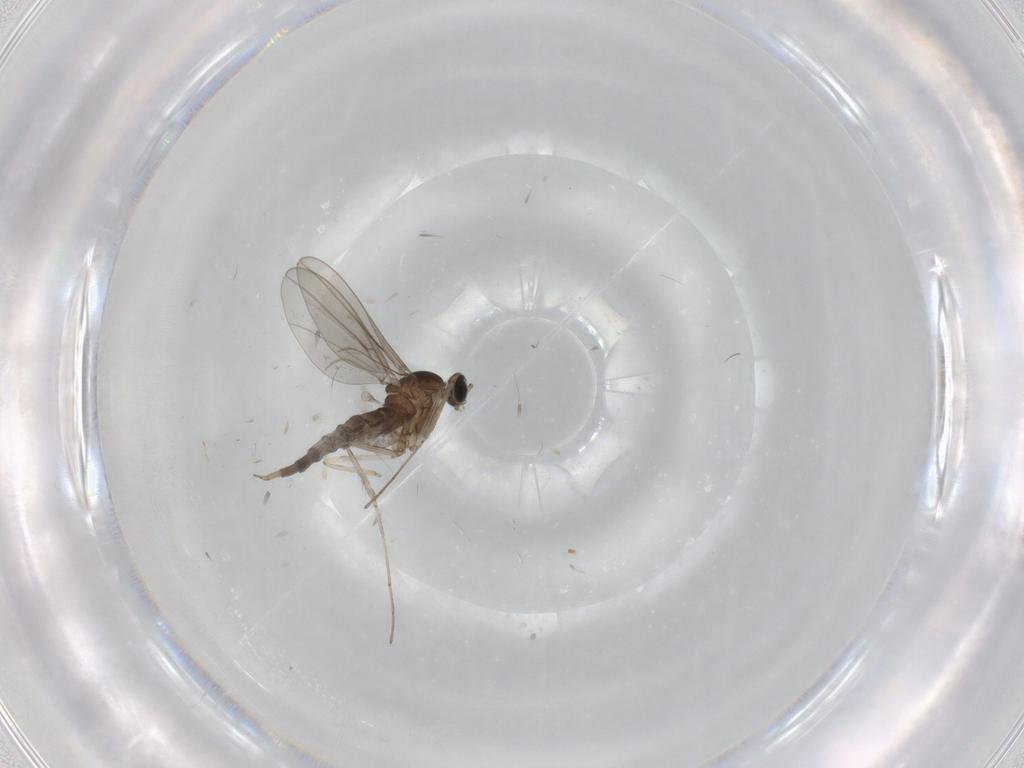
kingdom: Animalia
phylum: Arthropoda
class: Insecta
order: Diptera
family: Cecidomyiidae
